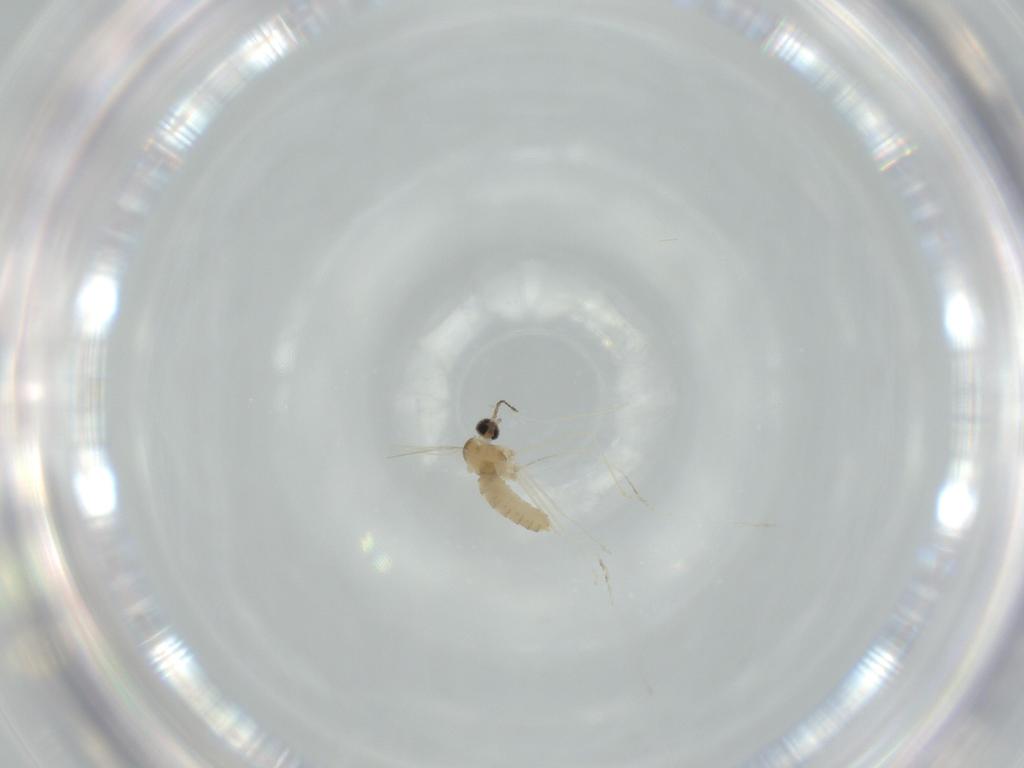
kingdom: Animalia
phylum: Arthropoda
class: Insecta
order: Diptera
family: Cecidomyiidae
